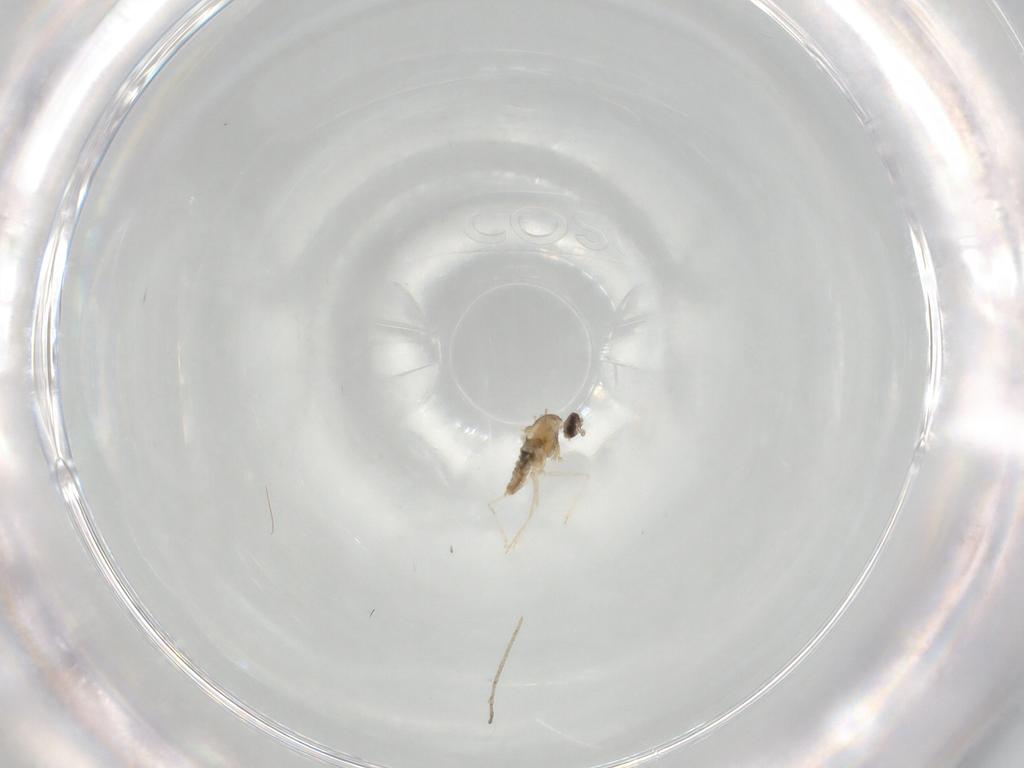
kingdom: Animalia
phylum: Arthropoda
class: Insecta
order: Diptera
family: Cecidomyiidae
